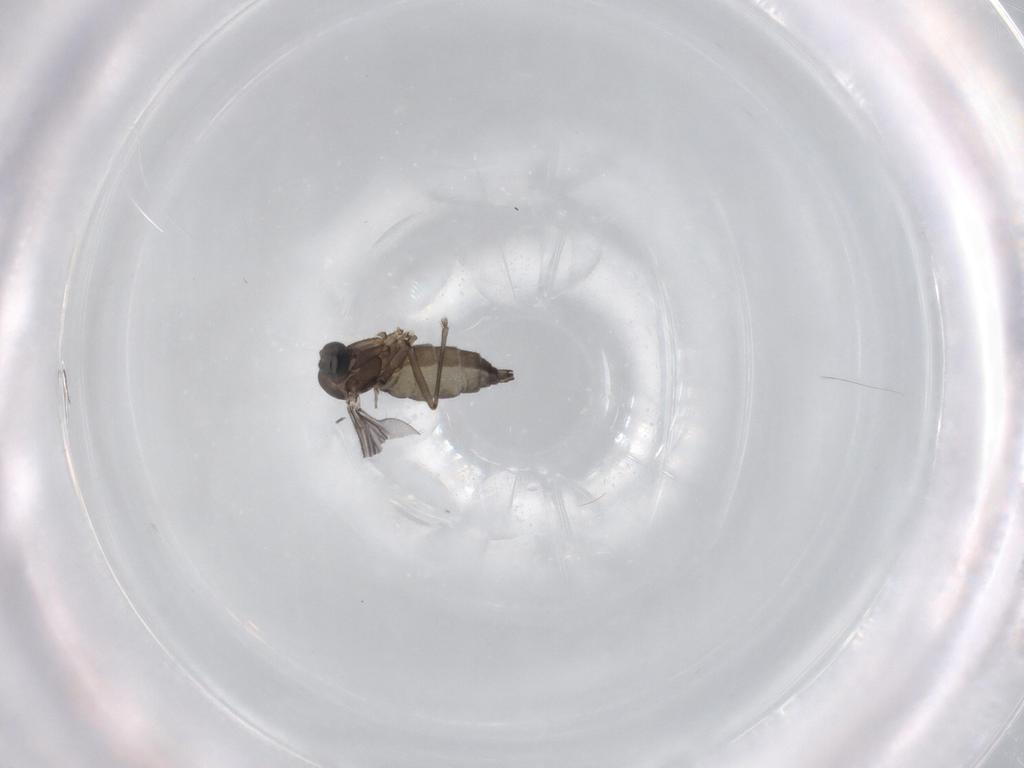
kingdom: Animalia
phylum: Arthropoda
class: Insecta
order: Diptera
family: Sciaridae
